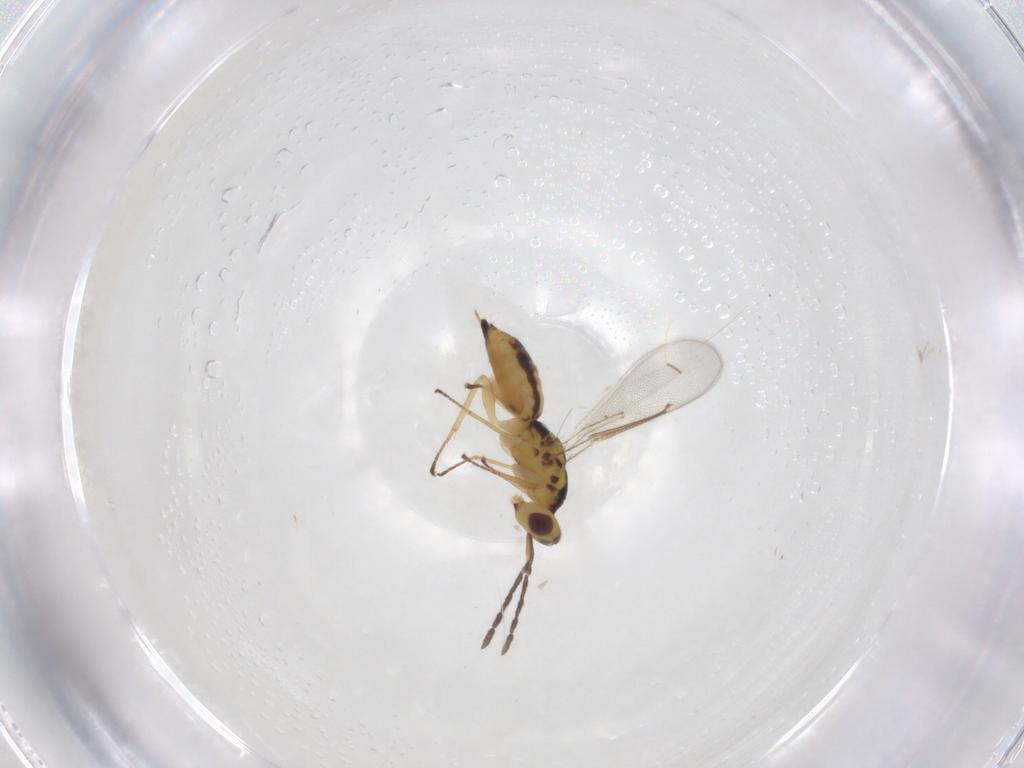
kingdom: Animalia
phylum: Arthropoda
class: Insecta
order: Hymenoptera
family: Eulophidae
